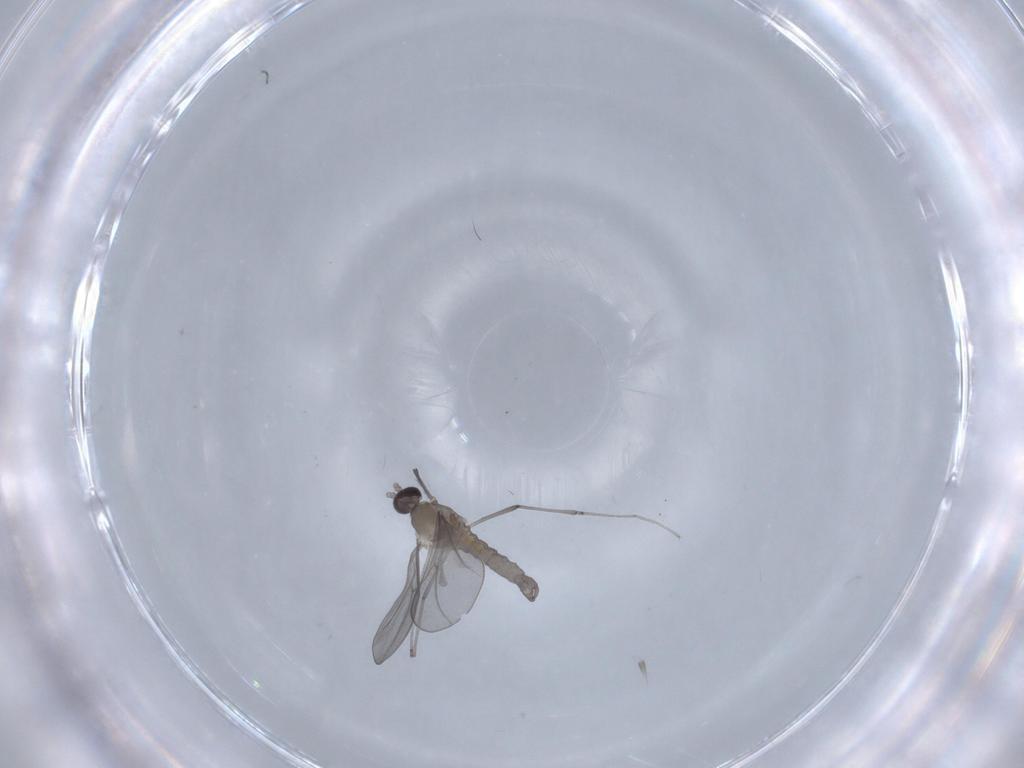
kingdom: Animalia
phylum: Arthropoda
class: Insecta
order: Diptera
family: Cecidomyiidae
